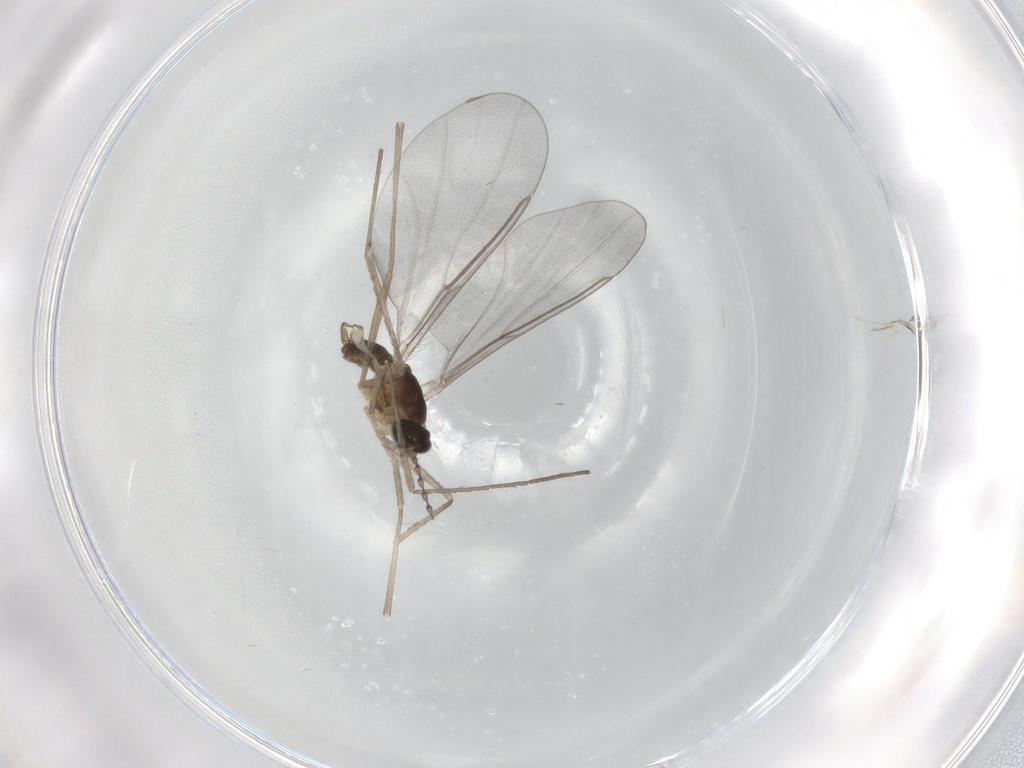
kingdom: Animalia
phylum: Arthropoda
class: Insecta
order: Diptera
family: Cecidomyiidae
